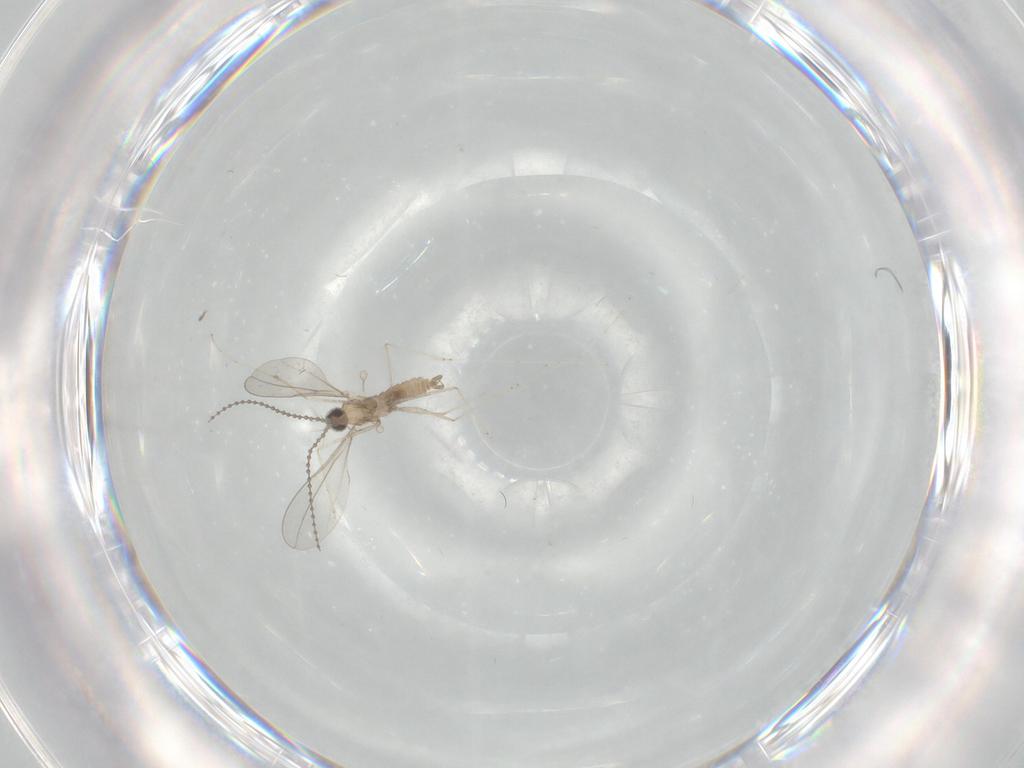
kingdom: Animalia
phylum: Arthropoda
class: Insecta
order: Diptera
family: Cecidomyiidae
